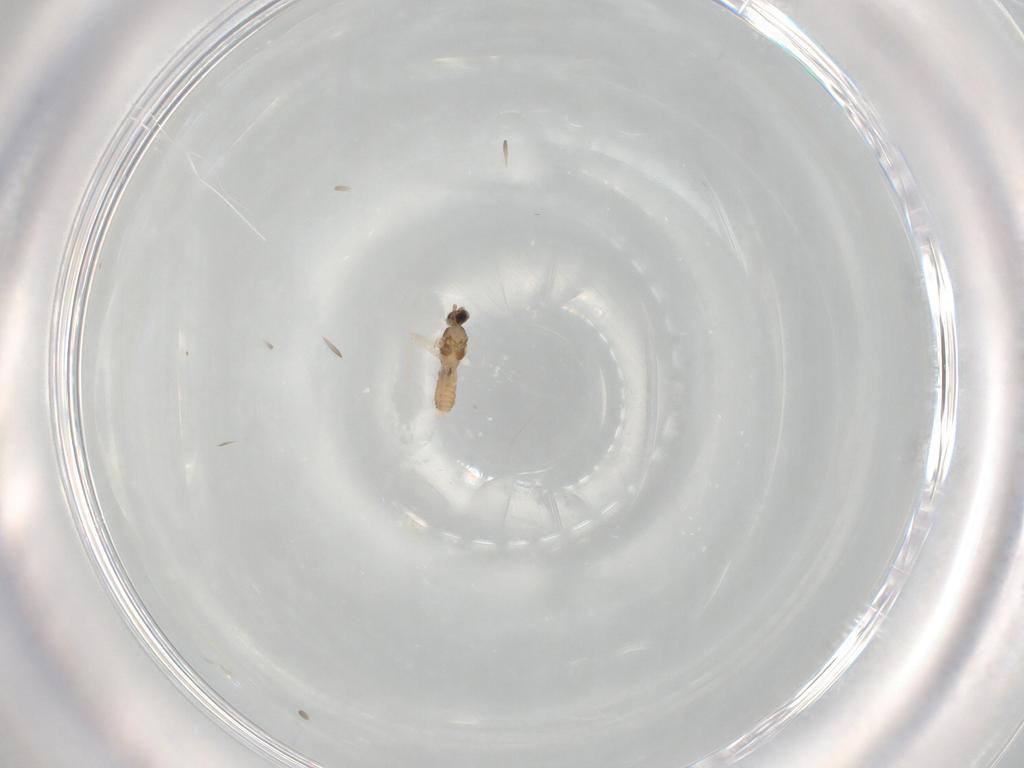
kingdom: Animalia
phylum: Arthropoda
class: Insecta
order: Diptera
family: Cecidomyiidae
